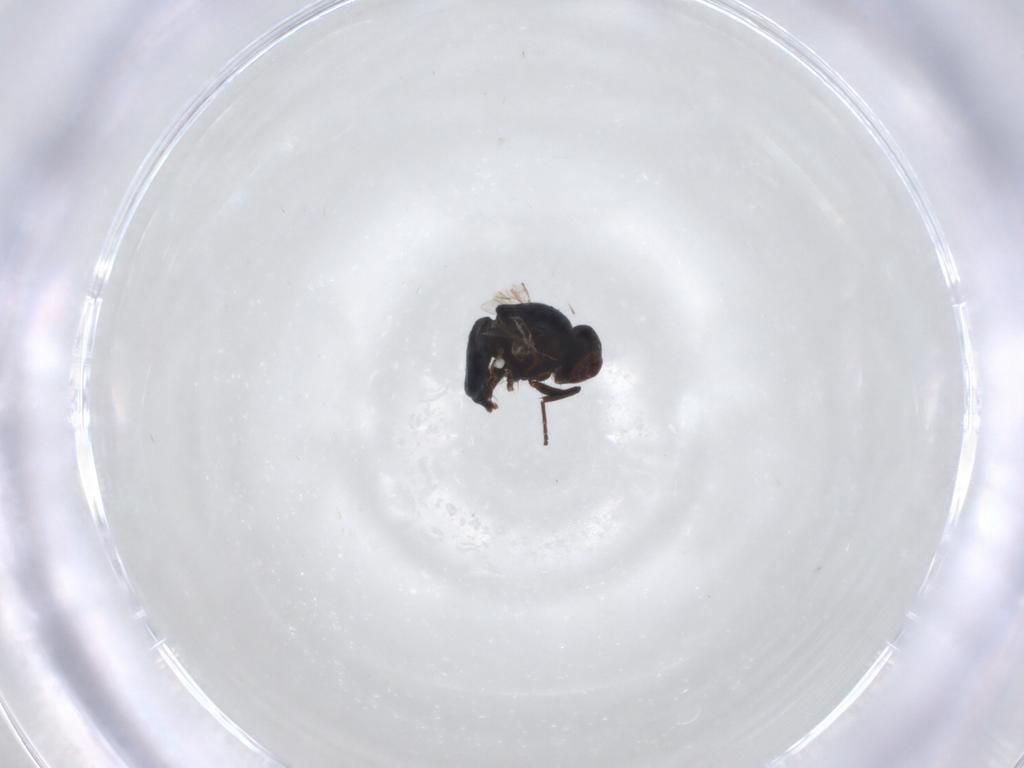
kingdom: Animalia
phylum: Arthropoda
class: Insecta
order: Diptera
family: Agromyzidae
